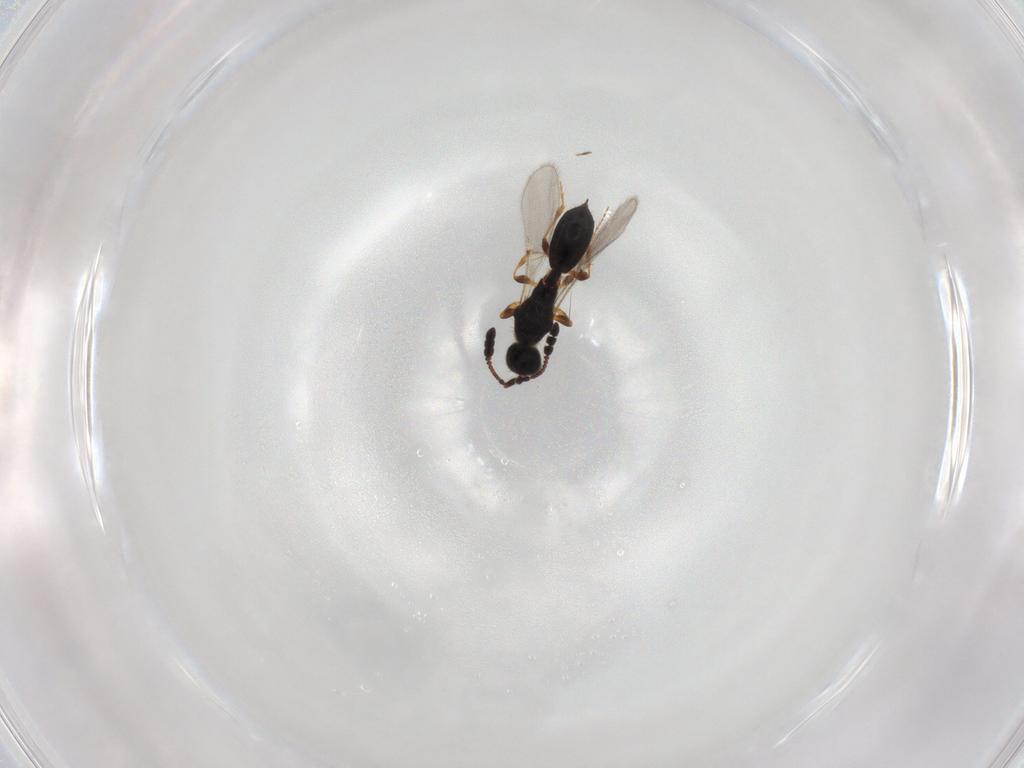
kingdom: Animalia
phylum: Arthropoda
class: Insecta
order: Hymenoptera
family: Diapriidae
